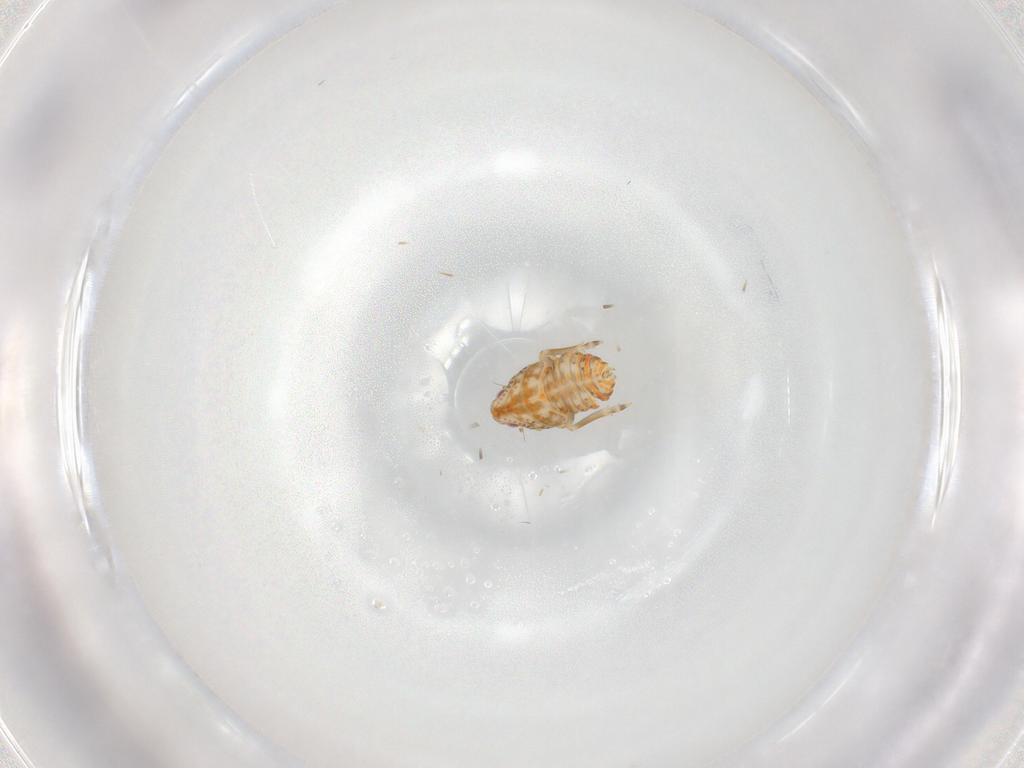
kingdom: Animalia
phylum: Arthropoda
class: Insecta
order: Hemiptera
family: Flatidae
